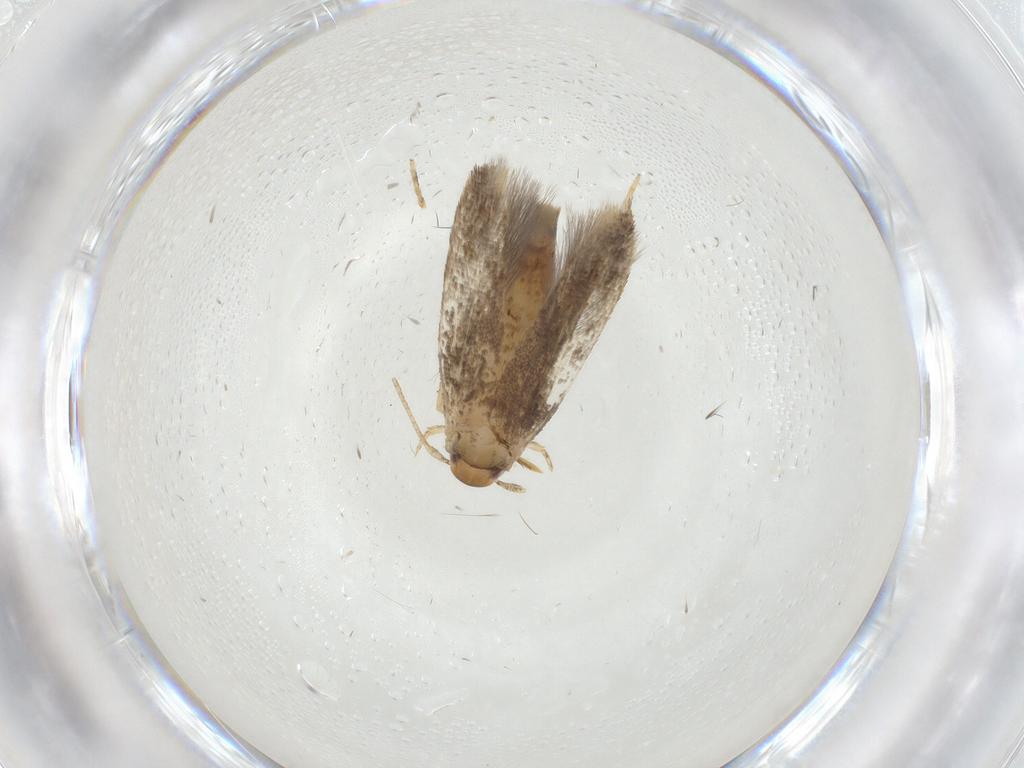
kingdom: Animalia
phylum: Arthropoda
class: Insecta
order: Lepidoptera
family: Momphidae
